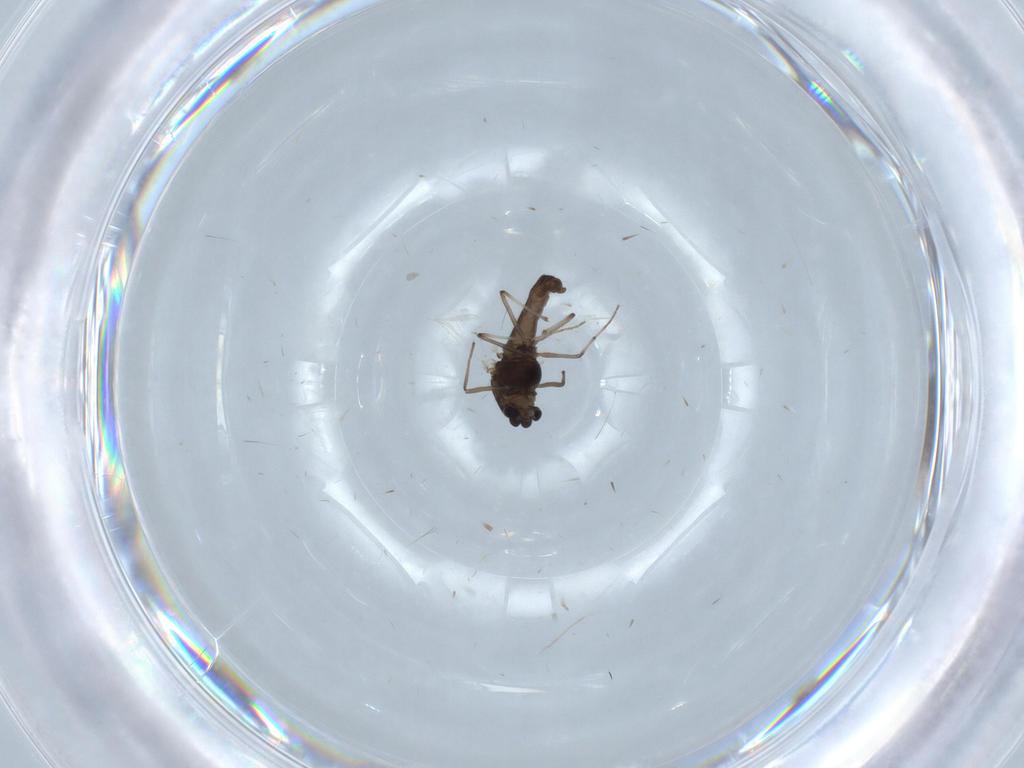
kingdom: Animalia
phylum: Arthropoda
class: Insecta
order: Diptera
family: Chironomidae
